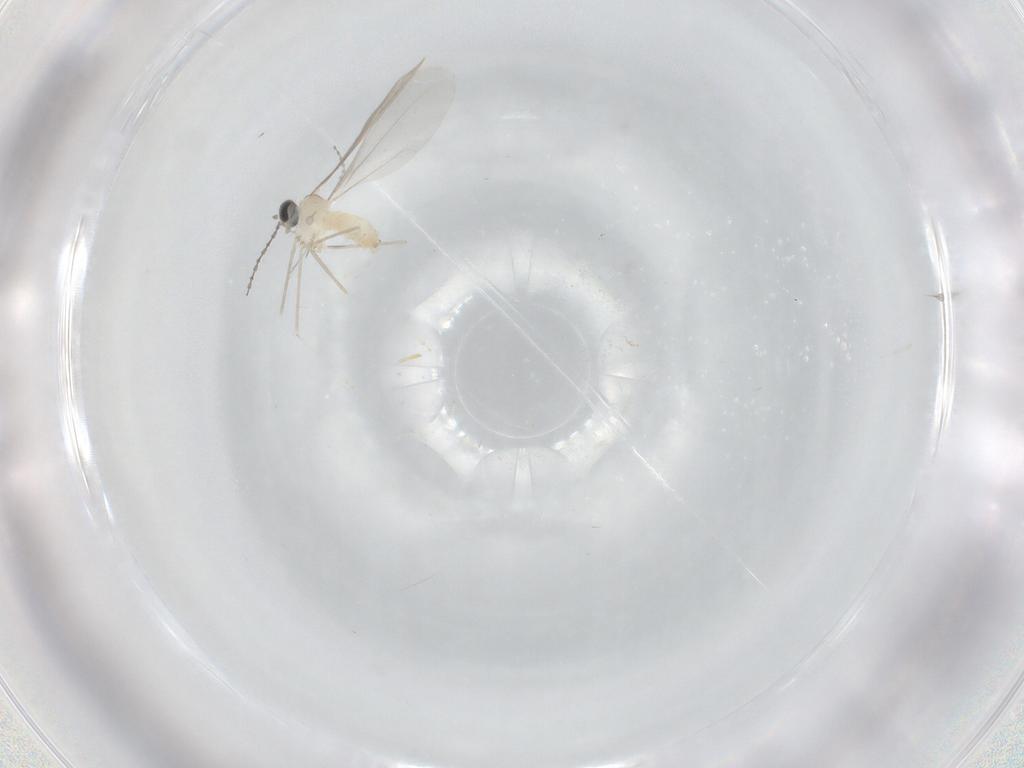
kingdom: Animalia
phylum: Arthropoda
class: Insecta
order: Diptera
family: Cecidomyiidae
